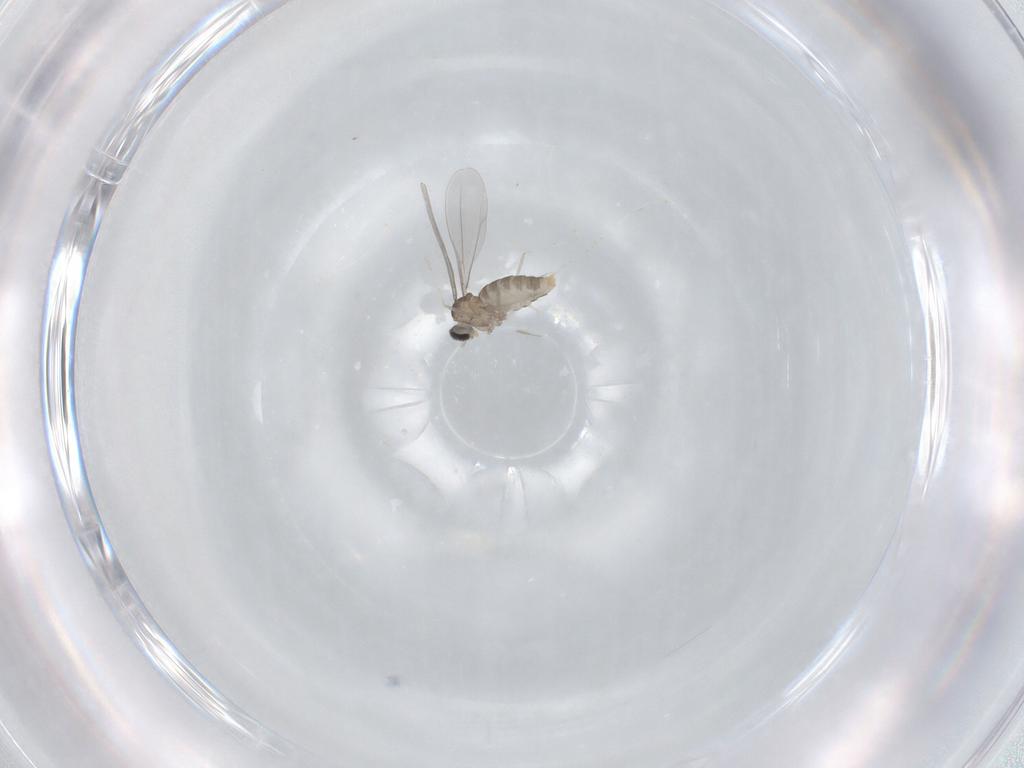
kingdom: Animalia
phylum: Arthropoda
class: Insecta
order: Diptera
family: Cecidomyiidae
